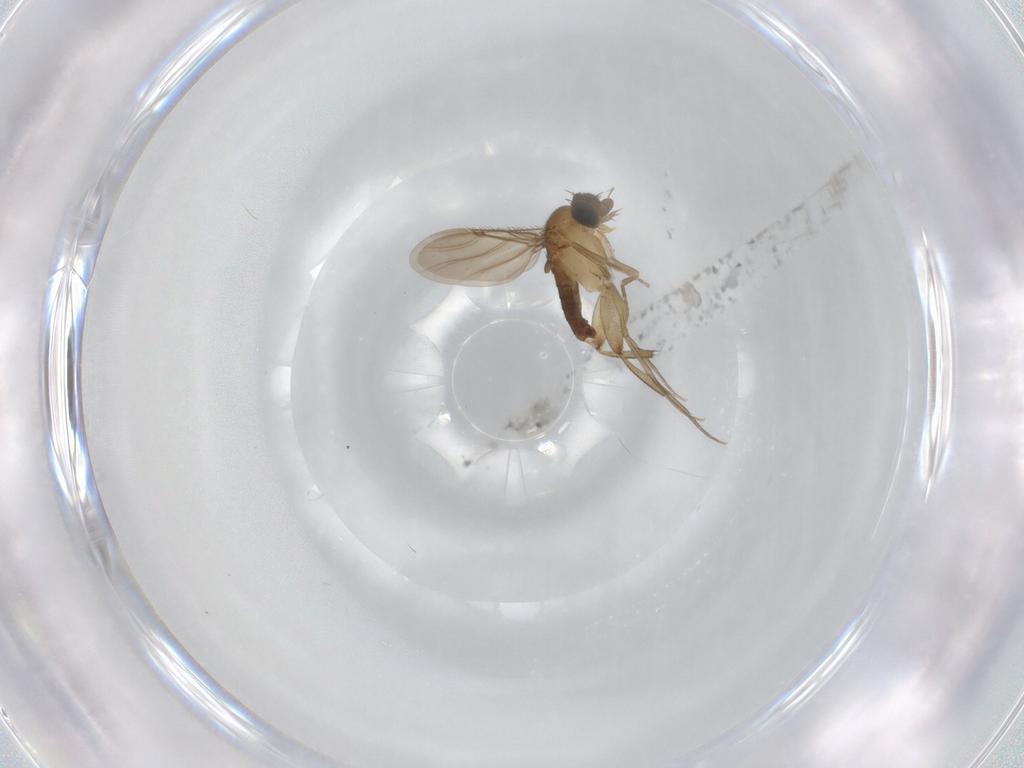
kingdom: Animalia
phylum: Arthropoda
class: Insecta
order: Diptera
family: Phoridae
